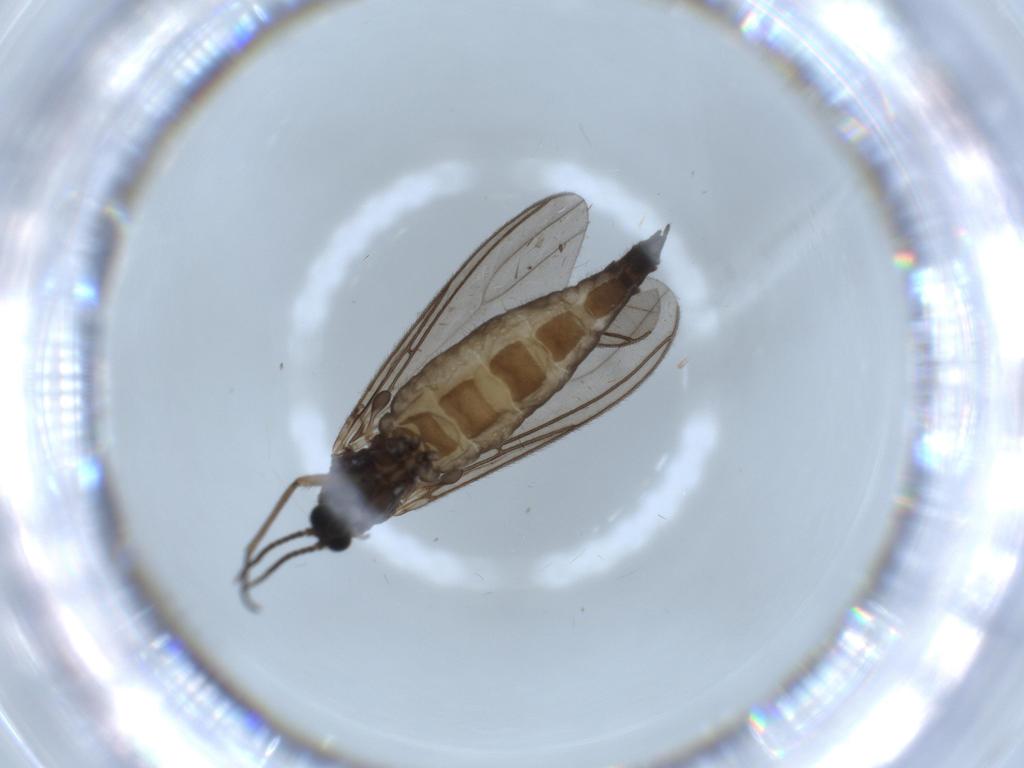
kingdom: Animalia
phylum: Arthropoda
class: Insecta
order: Diptera
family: Sciaridae
